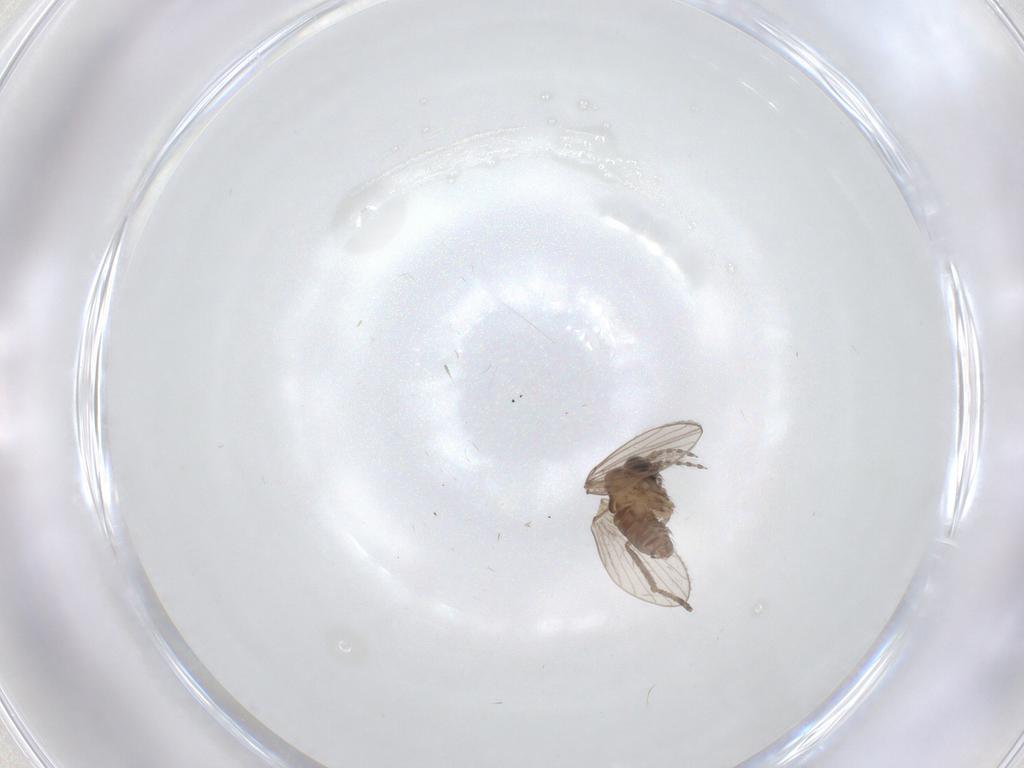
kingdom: Animalia
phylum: Arthropoda
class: Insecta
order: Diptera
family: Psychodidae
